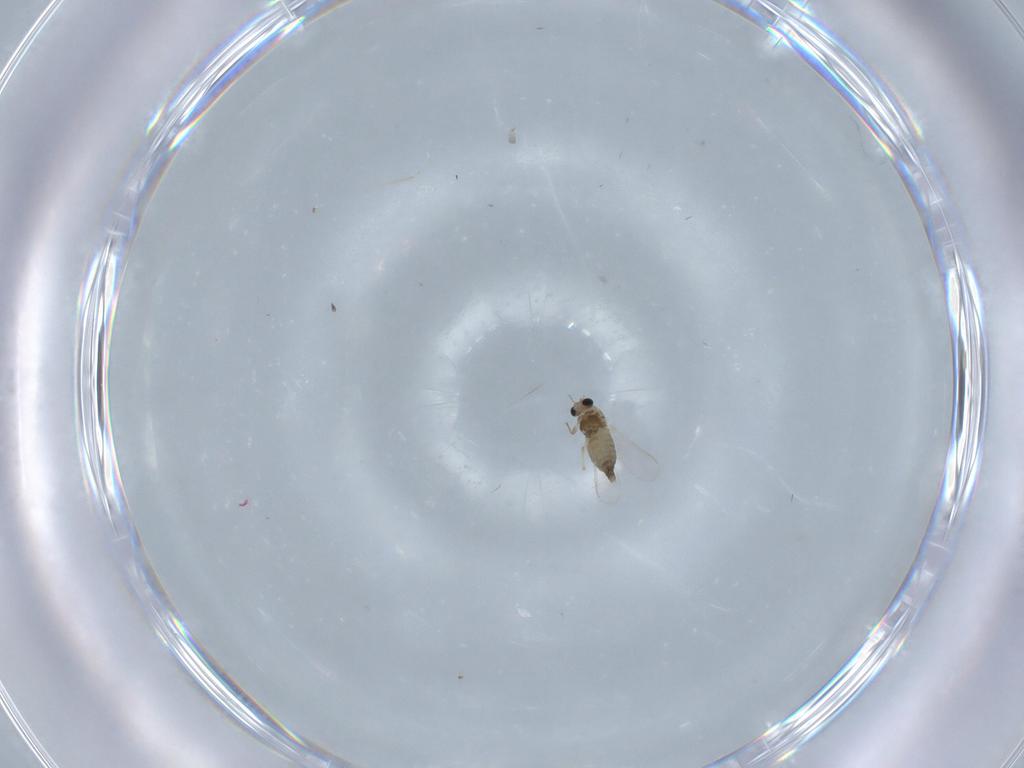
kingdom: Animalia
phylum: Arthropoda
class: Insecta
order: Diptera
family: Chironomidae
